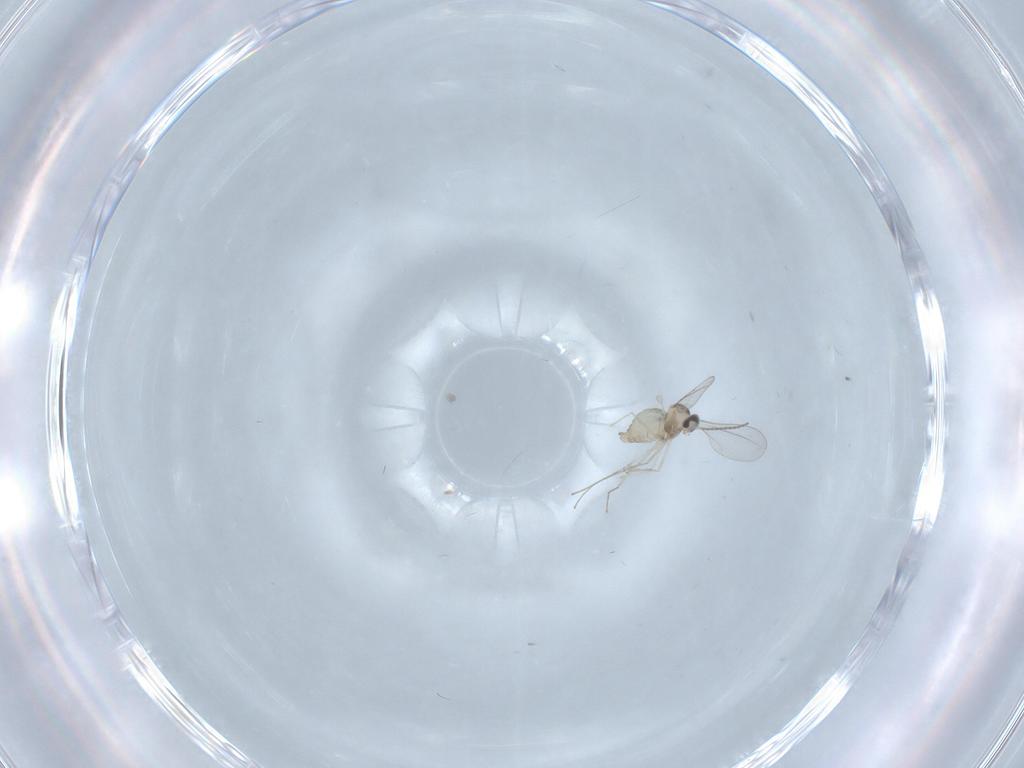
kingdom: Animalia
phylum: Arthropoda
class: Insecta
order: Diptera
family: Cecidomyiidae
